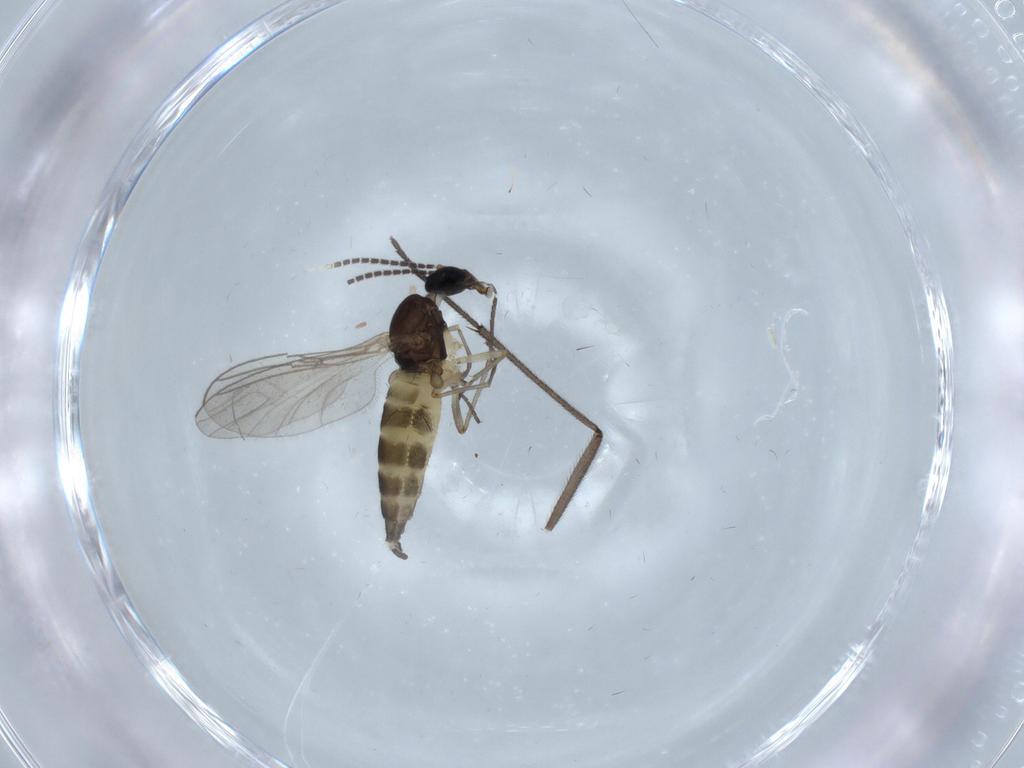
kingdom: Animalia
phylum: Arthropoda
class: Insecta
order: Diptera
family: Sciaridae
